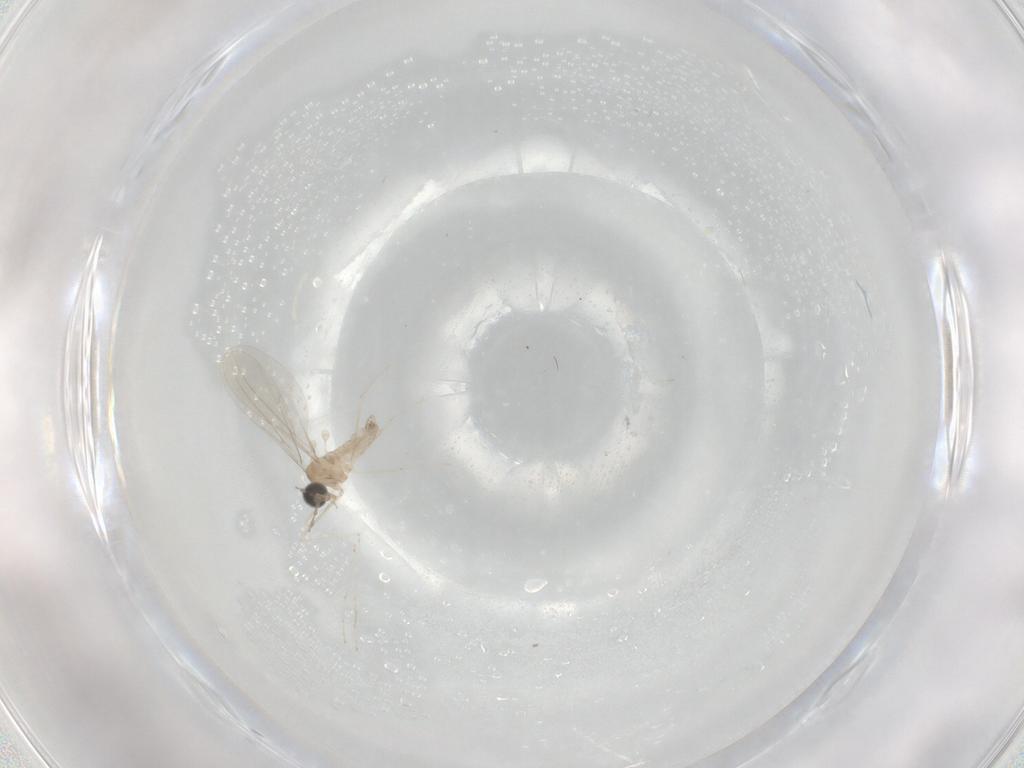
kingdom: Animalia
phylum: Arthropoda
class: Insecta
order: Diptera
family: Cecidomyiidae
